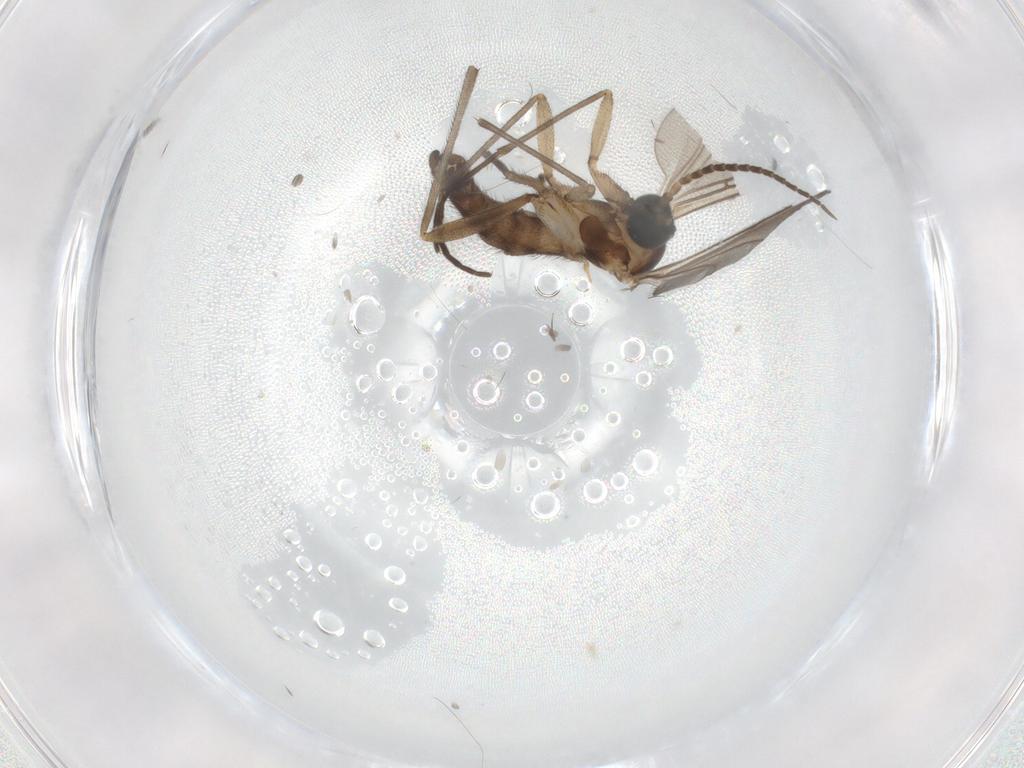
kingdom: Animalia
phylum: Arthropoda
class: Insecta
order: Diptera
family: Sciaridae
